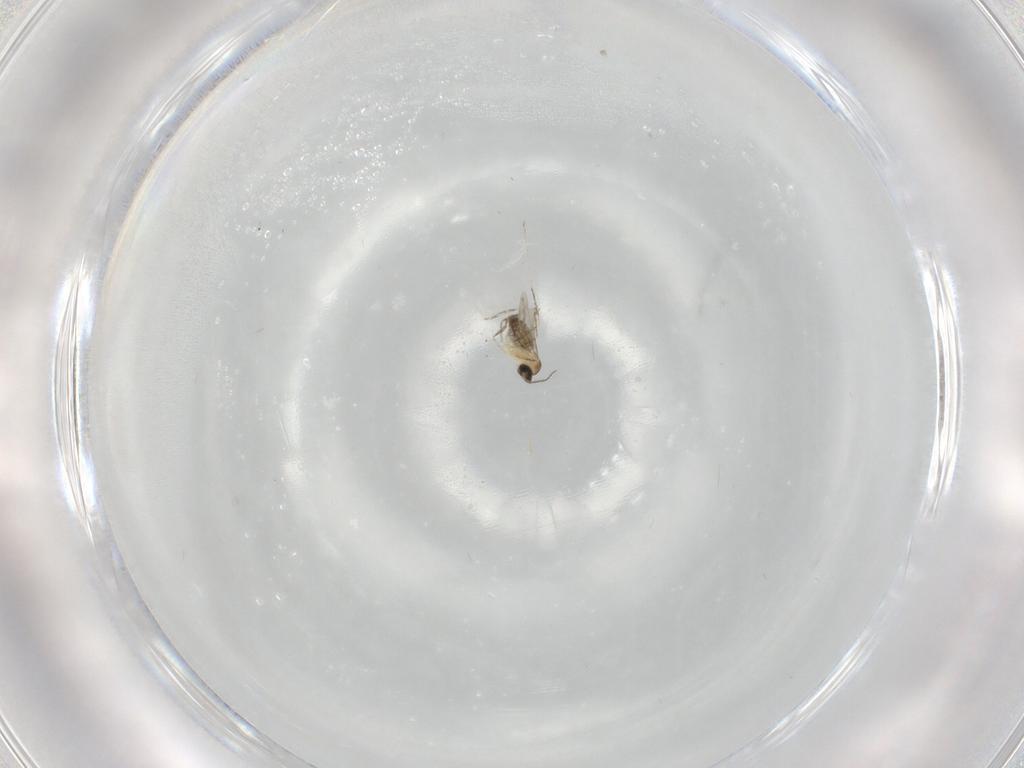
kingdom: Animalia
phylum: Arthropoda
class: Insecta
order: Diptera
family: Cecidomyiidae
